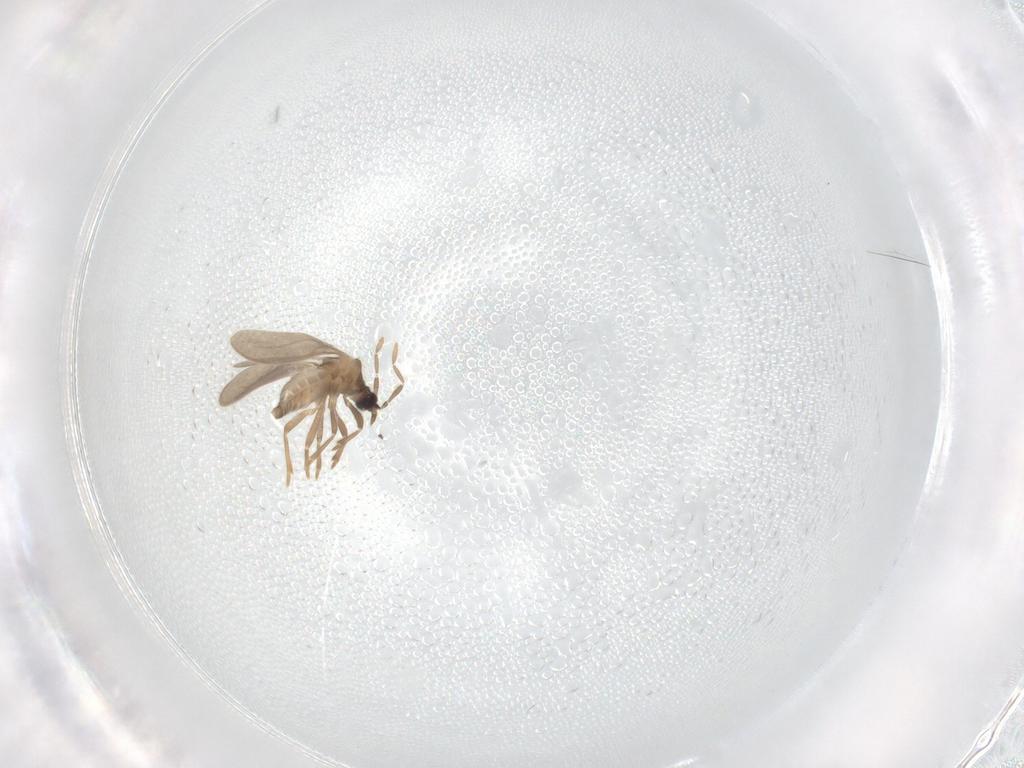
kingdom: Animalia
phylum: Arthropoda
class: Insecta
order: Hemiptera
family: Enicocephalidae
